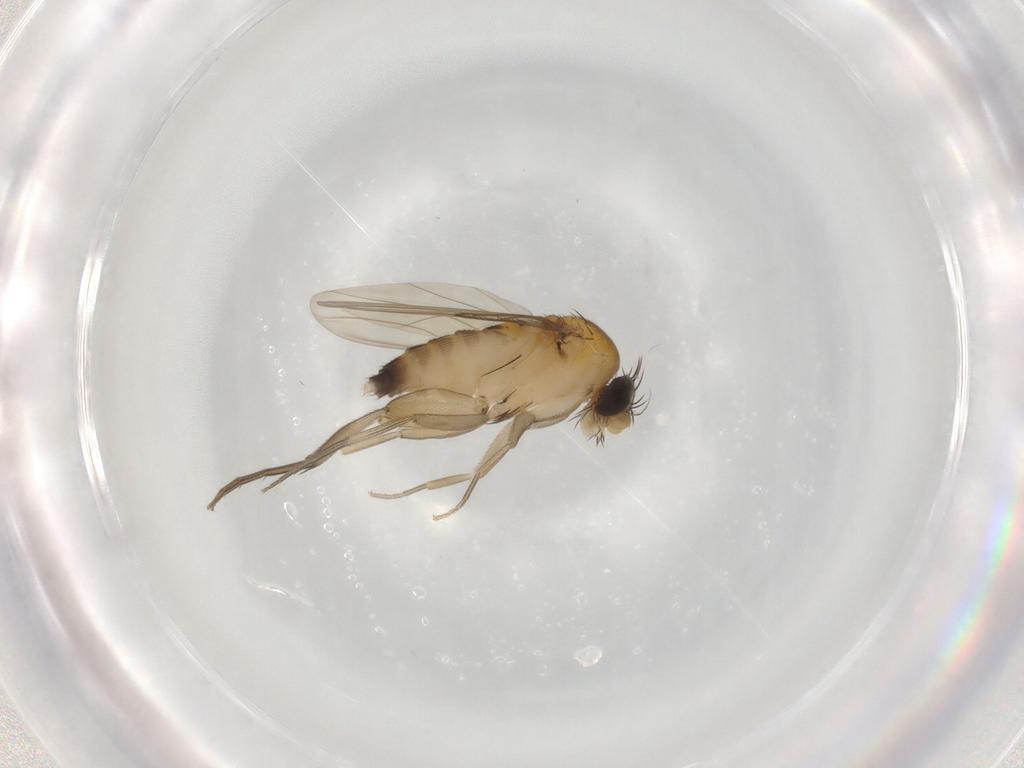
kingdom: Animalia
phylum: Arthropoda
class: Insecta
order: Diptera
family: Phoridae
